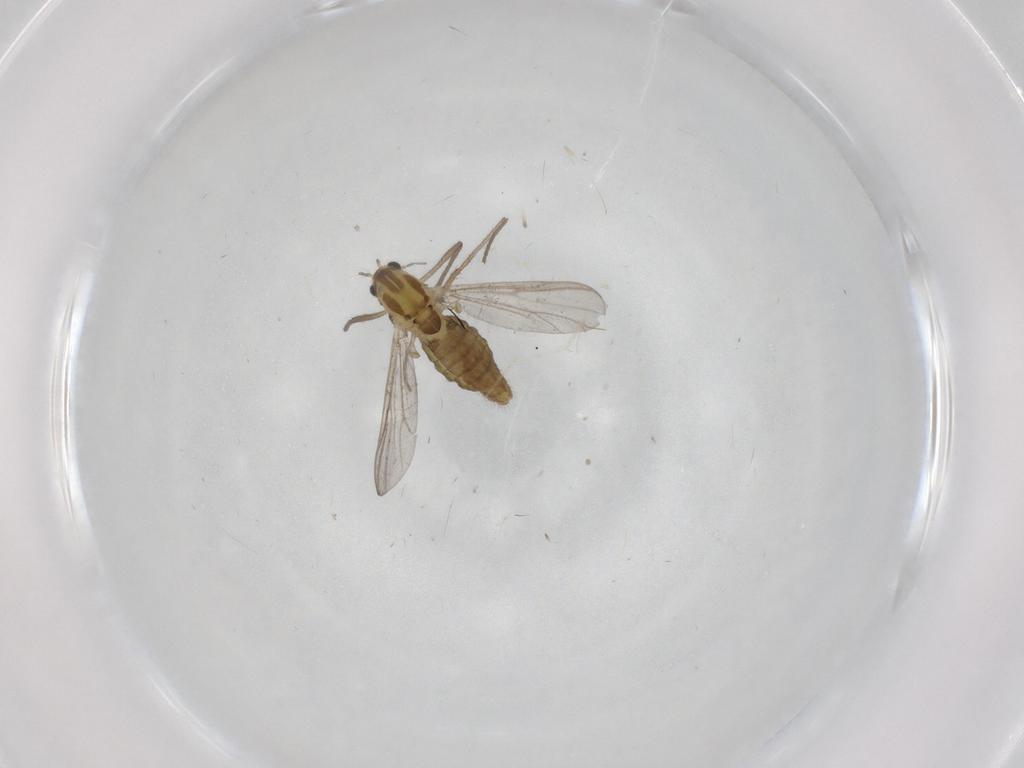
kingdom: Animalia
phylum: Arthropoda
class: Insecta
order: Diptera
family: Chironomidae
